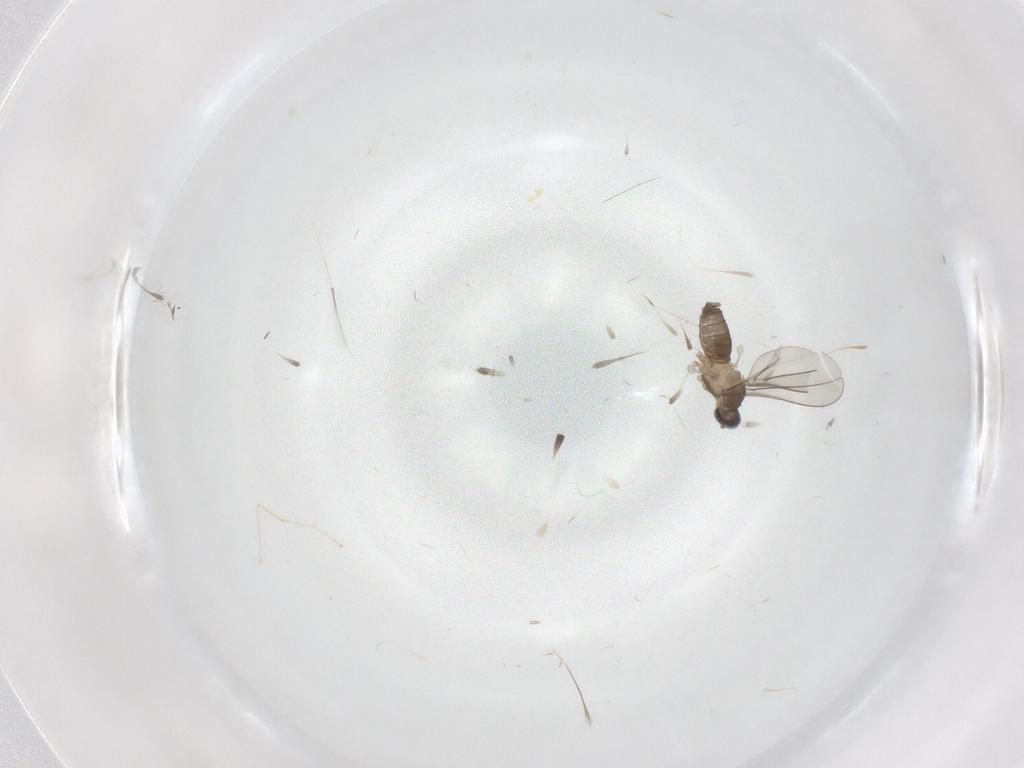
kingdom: Animalia
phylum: Arthropoda
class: Insecta
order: Diptera
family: Cecidomyiidae
